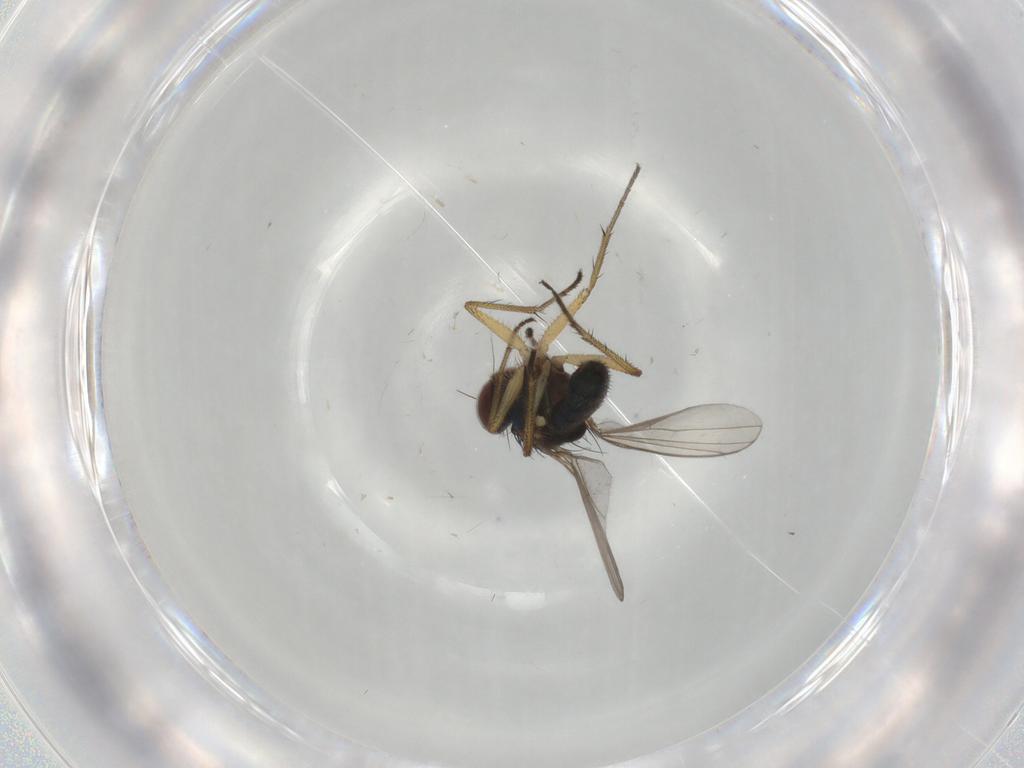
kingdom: Animalia
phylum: Arthropoda
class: Insecta
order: Diptera
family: Dolichopodidae
